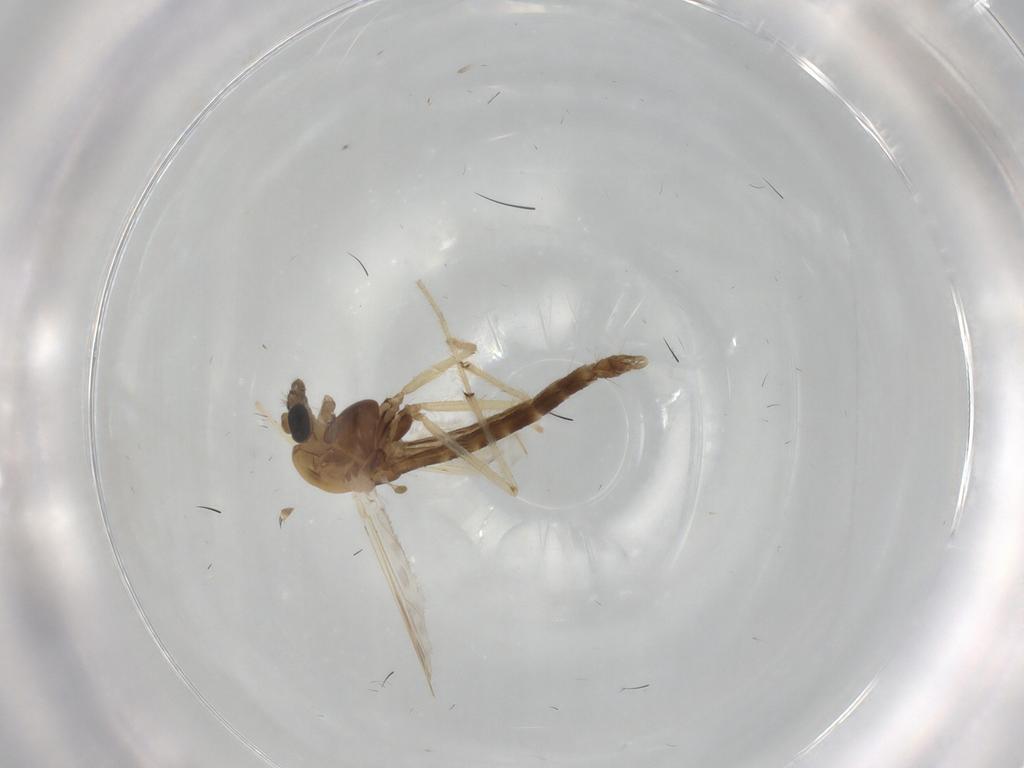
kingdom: Animalia
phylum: Arthropoda
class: Insecta
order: Diptera
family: Chironomidae
